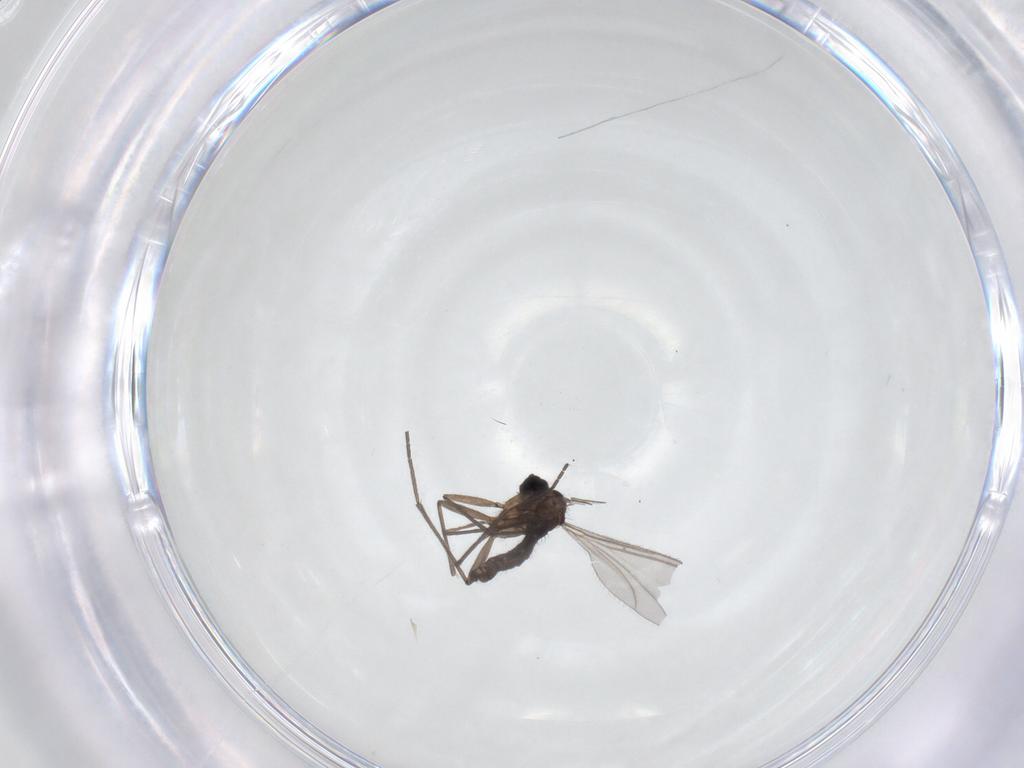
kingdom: Animalia
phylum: Arthropoda
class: Insecta
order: Diptera
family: Sciaridae
